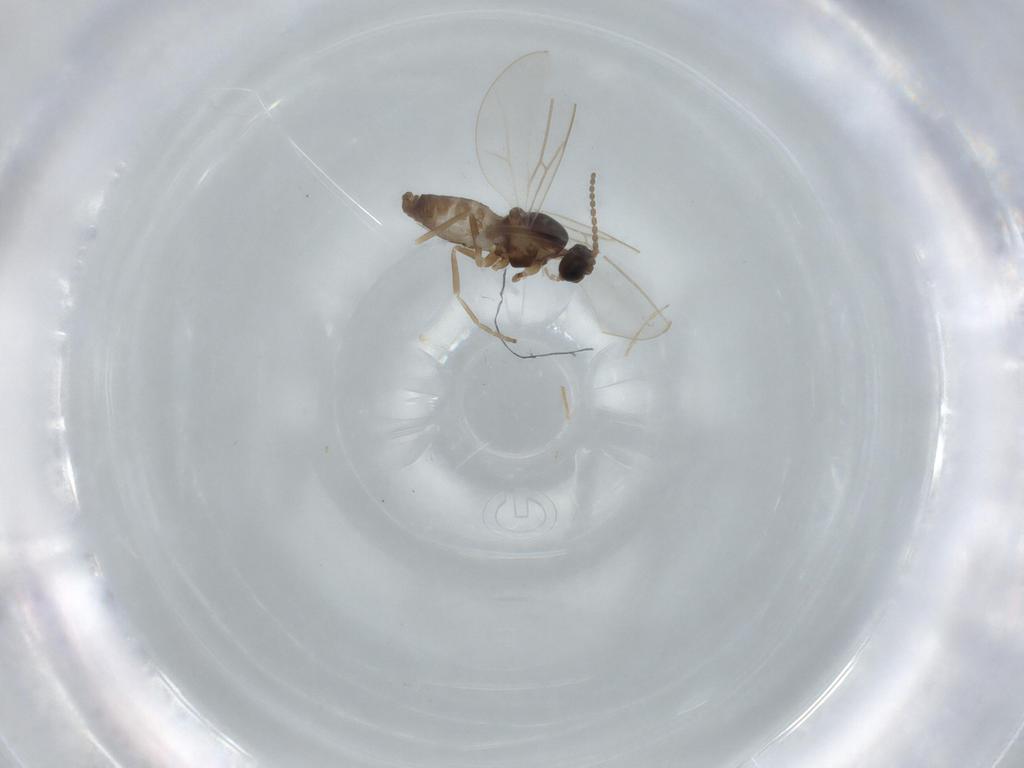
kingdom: Animalia
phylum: Arthropoda
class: Insecta
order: Diptera
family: Cecidomyiidae
